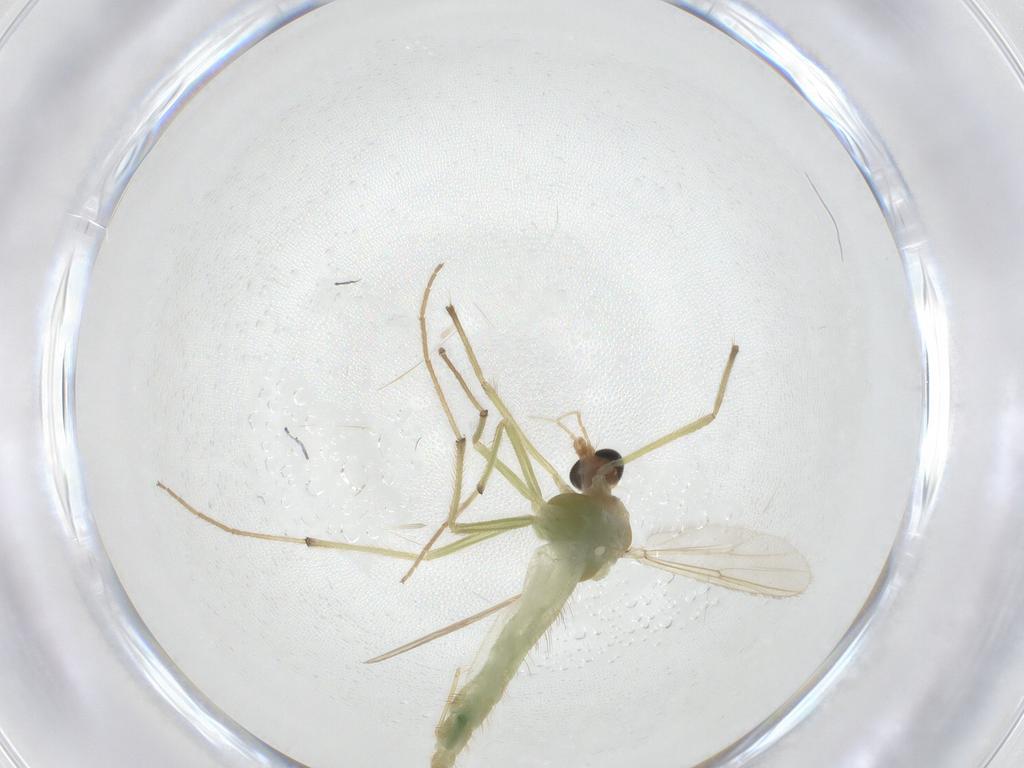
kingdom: Animalia
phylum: Arthropoda
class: Insecta
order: Diptera
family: Chironomidae
